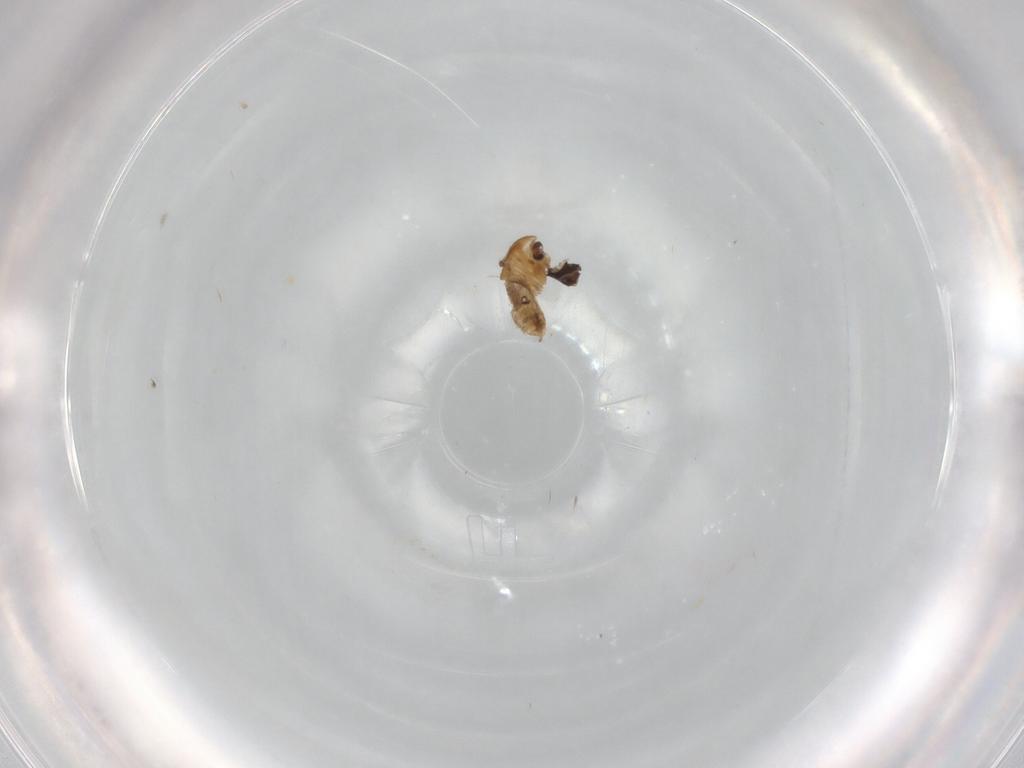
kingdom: Animalia
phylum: Arthropoda
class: Insecta
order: Diptera
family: Lonchaeidae
